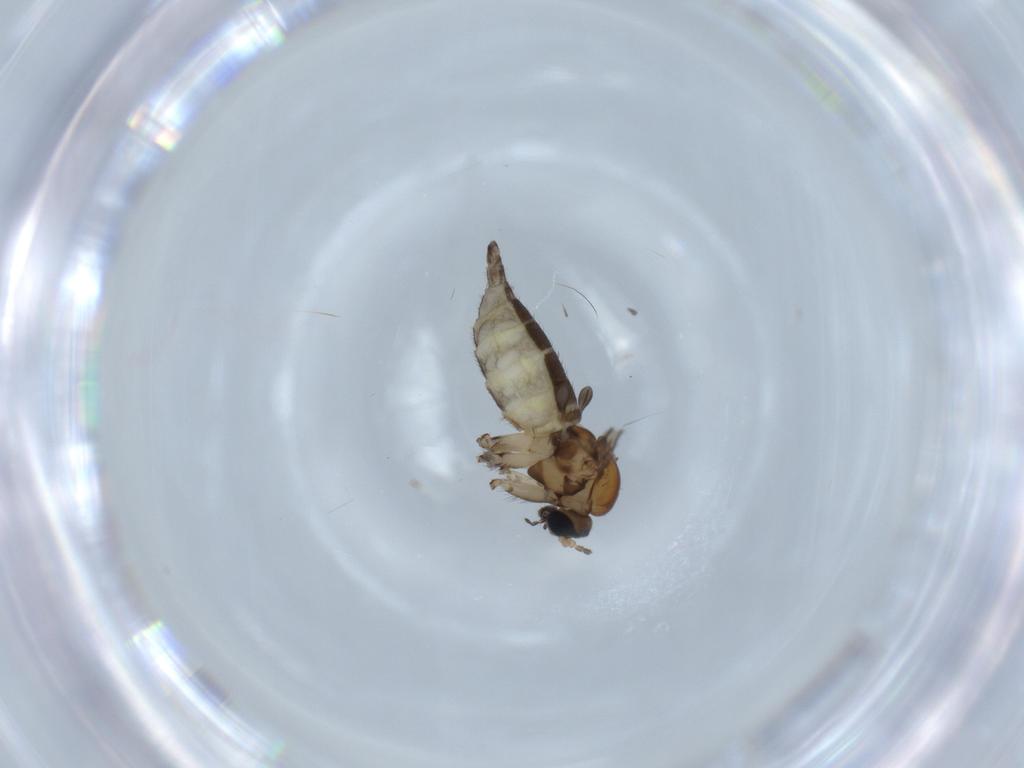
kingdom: Animalia
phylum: Arthropoda
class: Insecta
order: Diptera
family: Sciaridae
